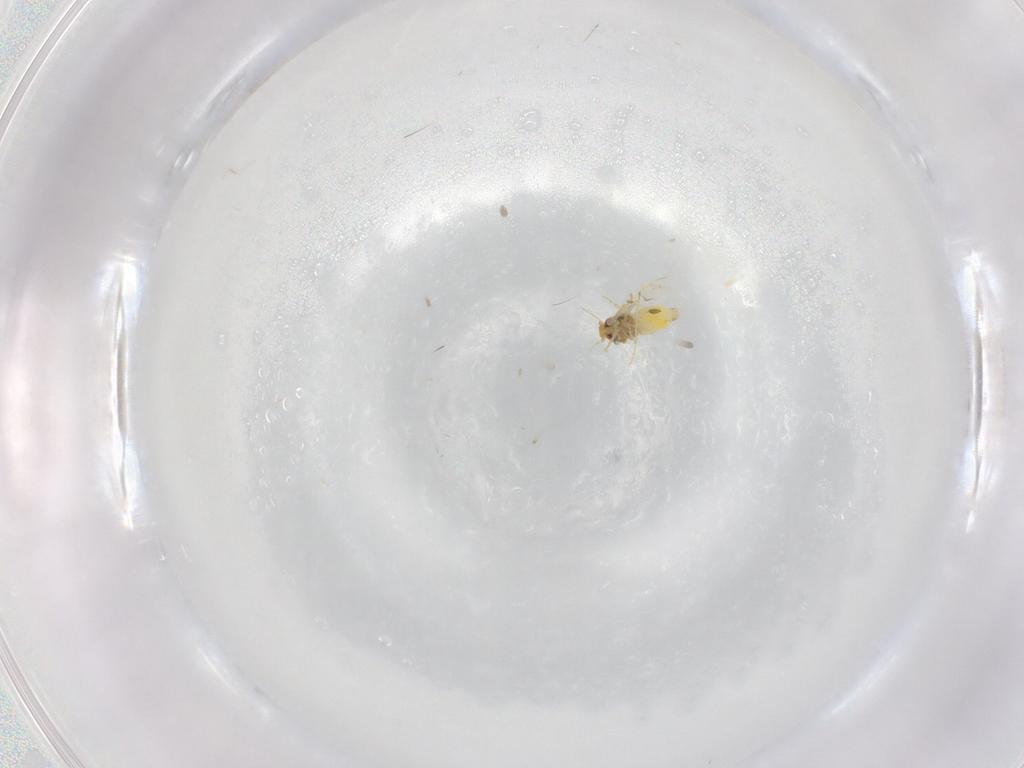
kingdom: Animalia
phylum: Arthropoda
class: Insecta
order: Hemiptera
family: Aleyrodidae
